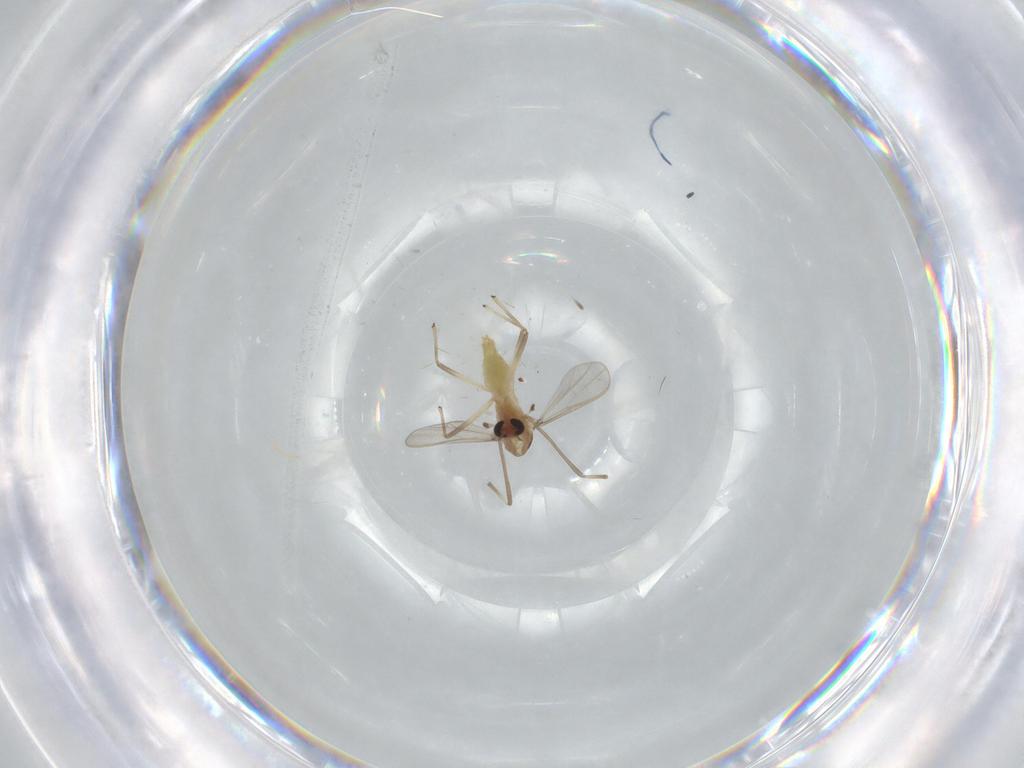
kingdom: Animalia
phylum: Arthropoda
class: Insecta
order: Diptera
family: Chironomidae
